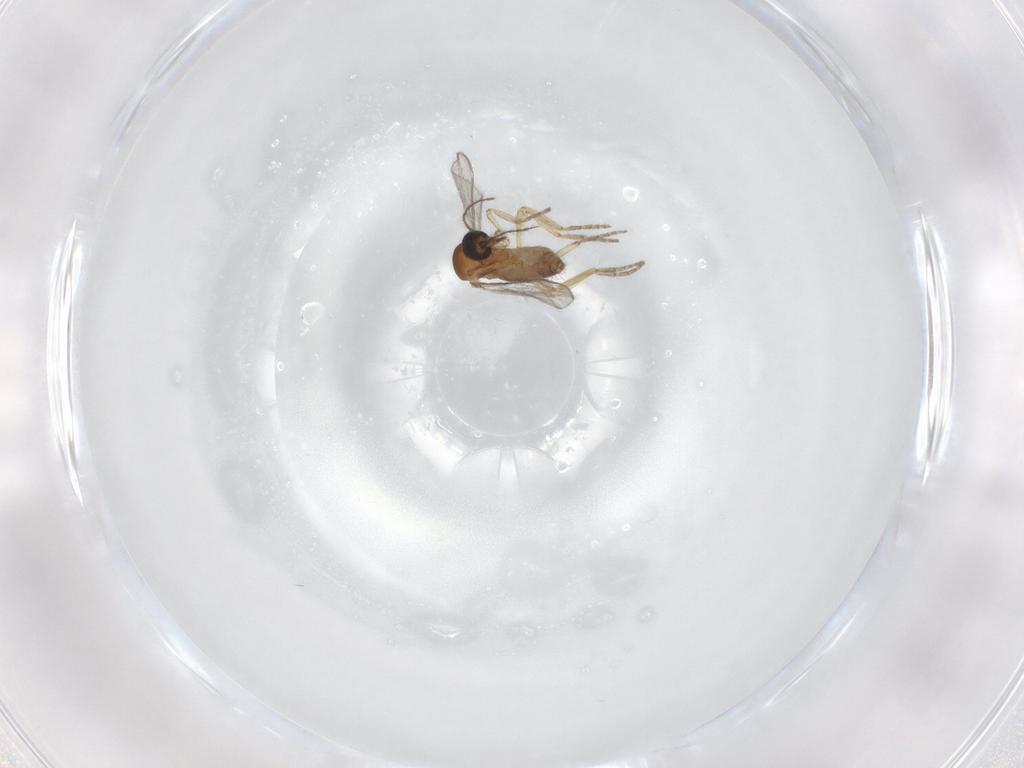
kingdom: Animalia
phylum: Arthropoda
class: Insecta
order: Diptera
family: Ceratopogonidae
